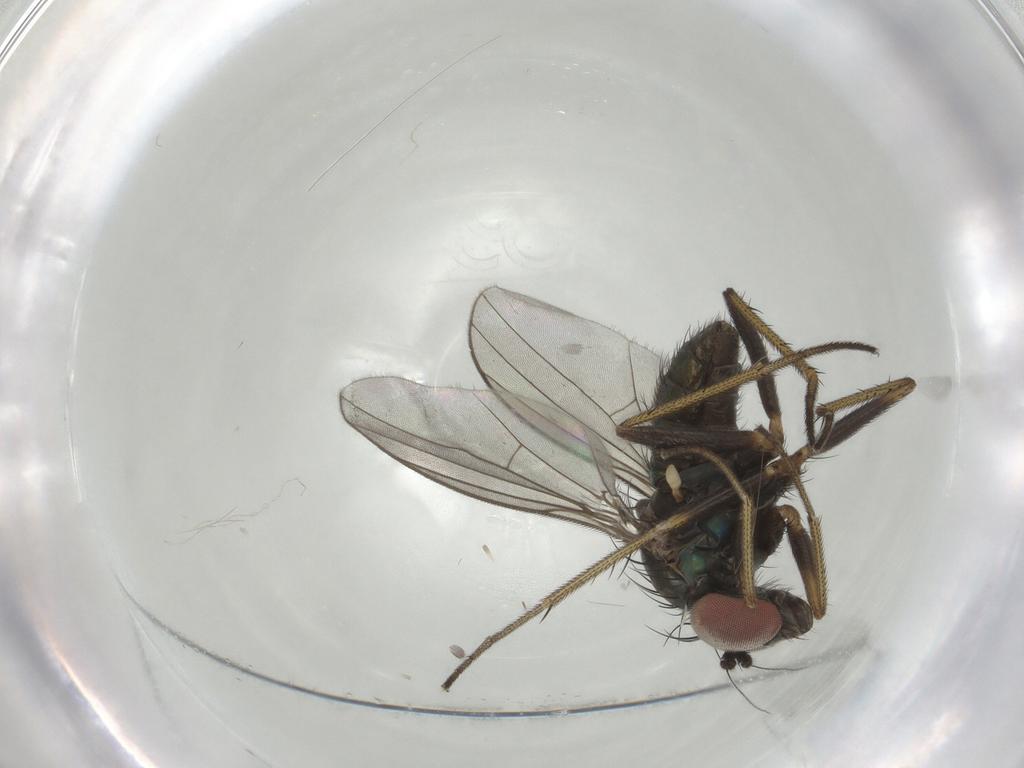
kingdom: Animalia
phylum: Arthropoda
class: Insecta
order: Diptera
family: Dolichopodidae
